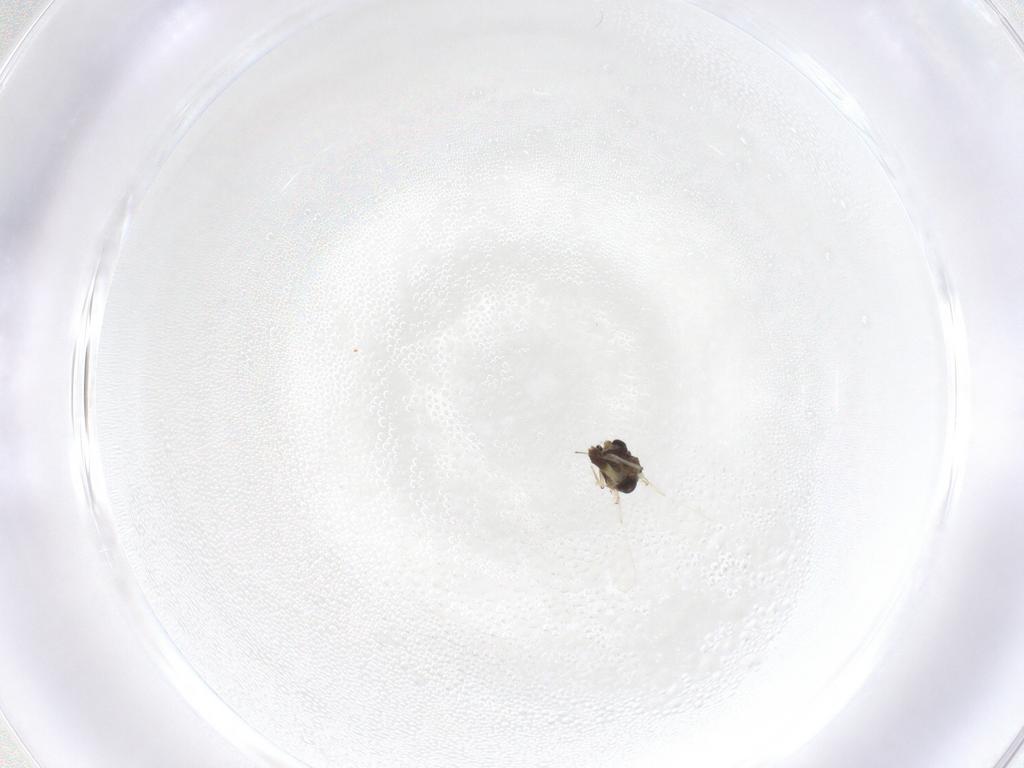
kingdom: Animalia
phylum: Arthropoda
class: Insecta
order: Diptera
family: Chironomidae
